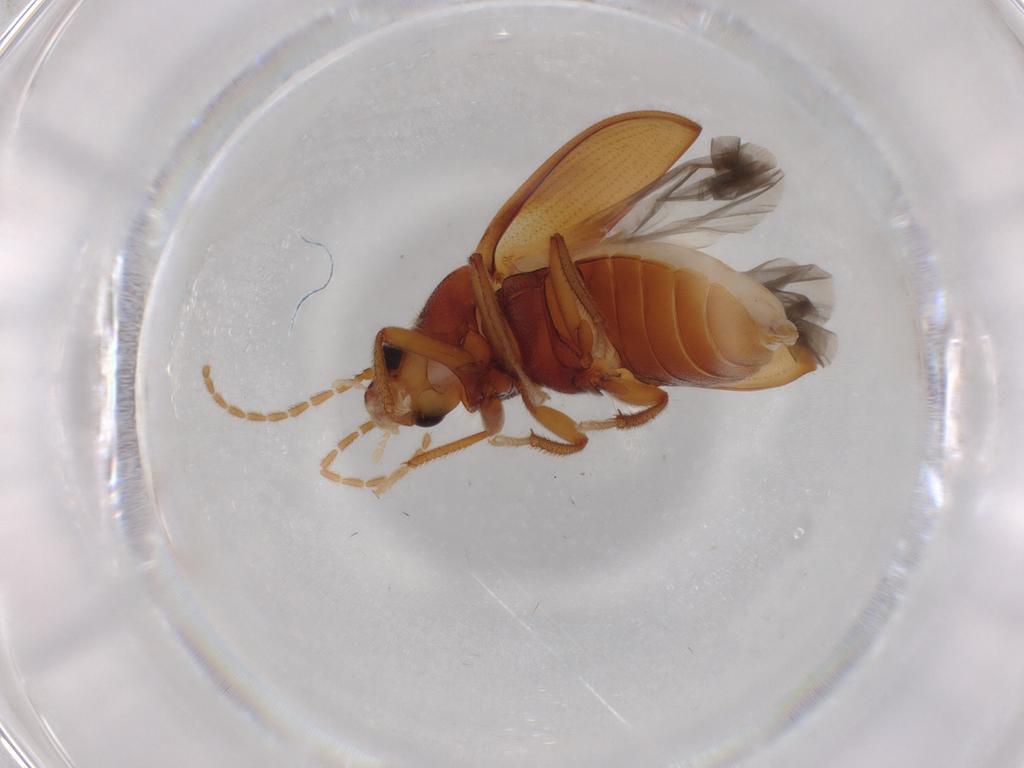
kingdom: Animalia
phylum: Arthropoda
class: Insecta
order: Coleoptera
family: Ptilodactylidae
